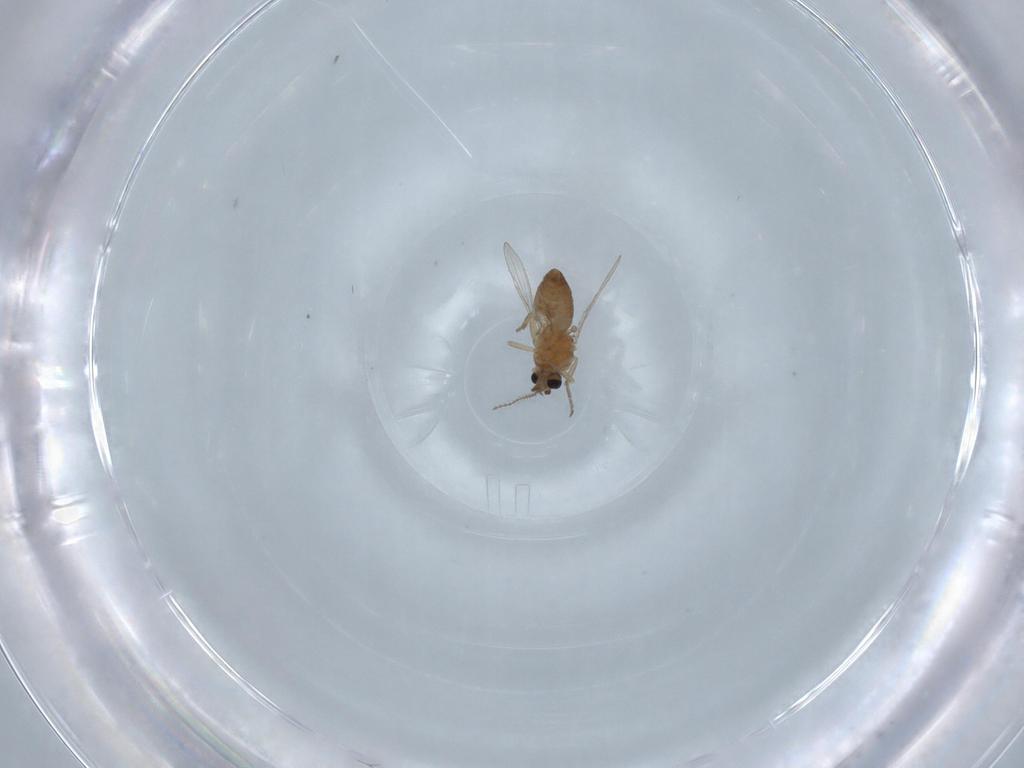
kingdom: Animalia
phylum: Arthropoda
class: Insecta
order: Diptera
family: Ceratopogonidae
